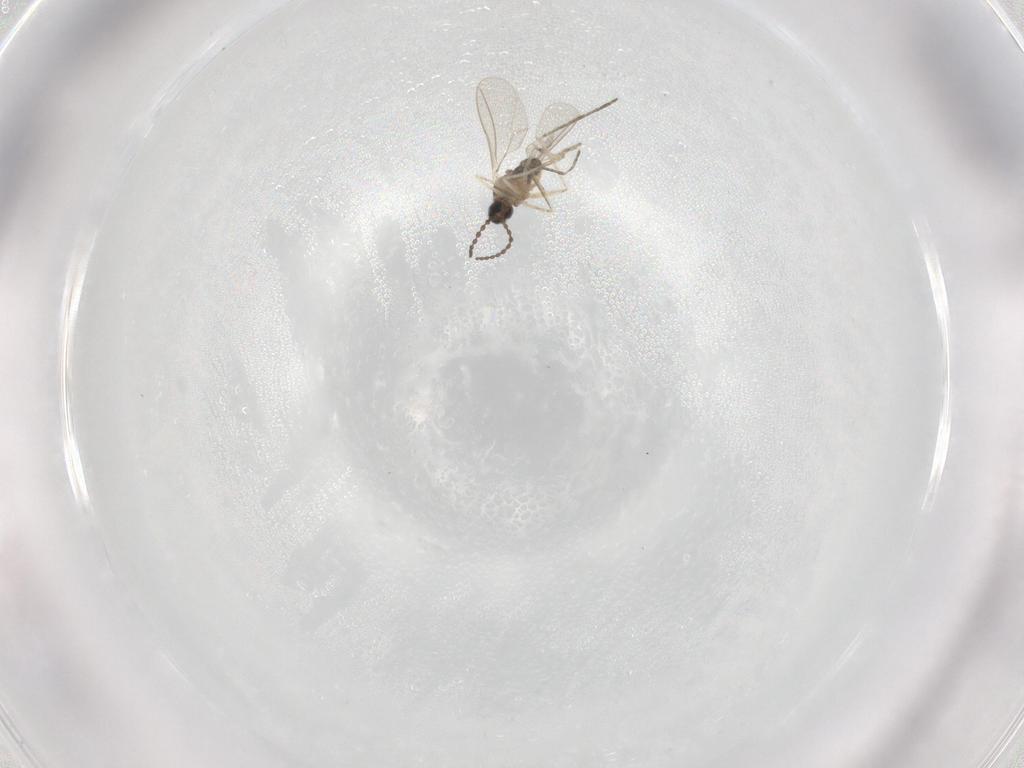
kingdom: Animalia
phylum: Arthropoda
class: Insecta
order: Diptera
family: Cecidomyiidae
